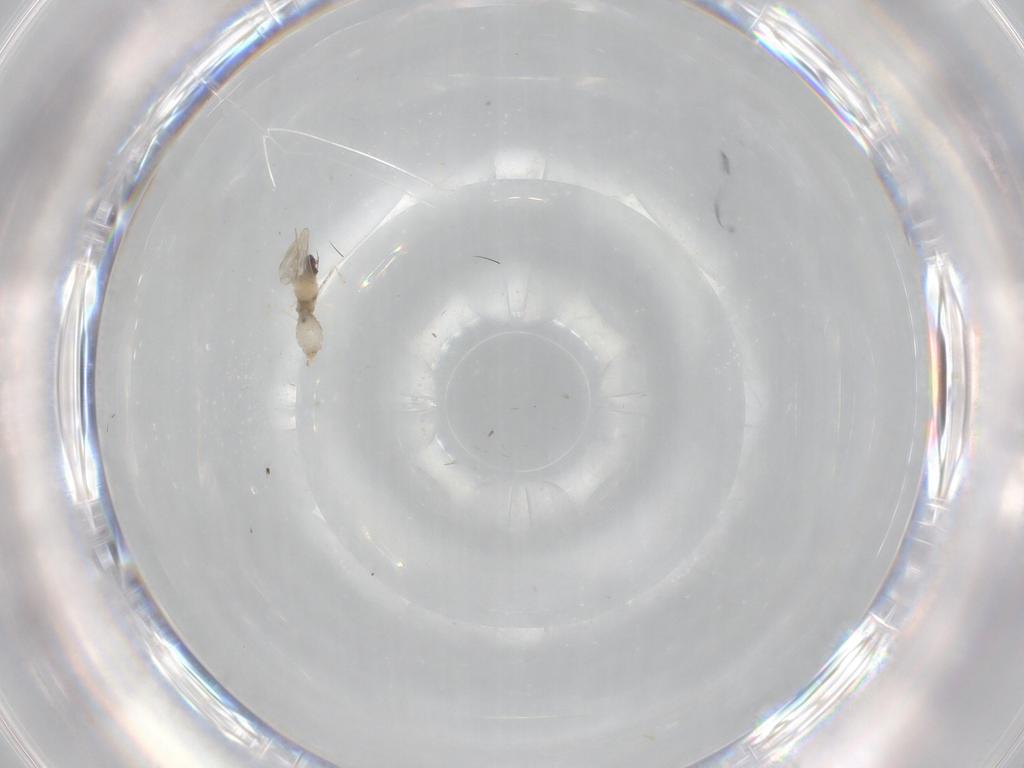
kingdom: Animalia
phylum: Arthropoda
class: Insecta
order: Diptera
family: Cecidomyiidae
